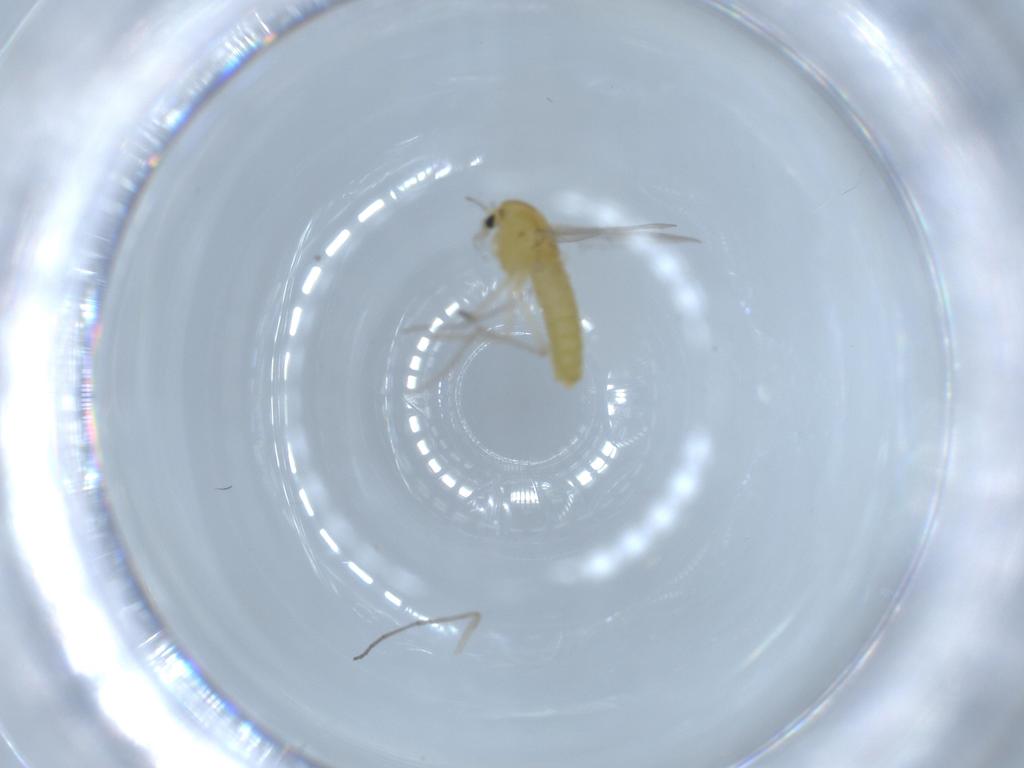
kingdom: Animalia
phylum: Arthropoda
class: Insecta
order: Diptera
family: Chironomidae
